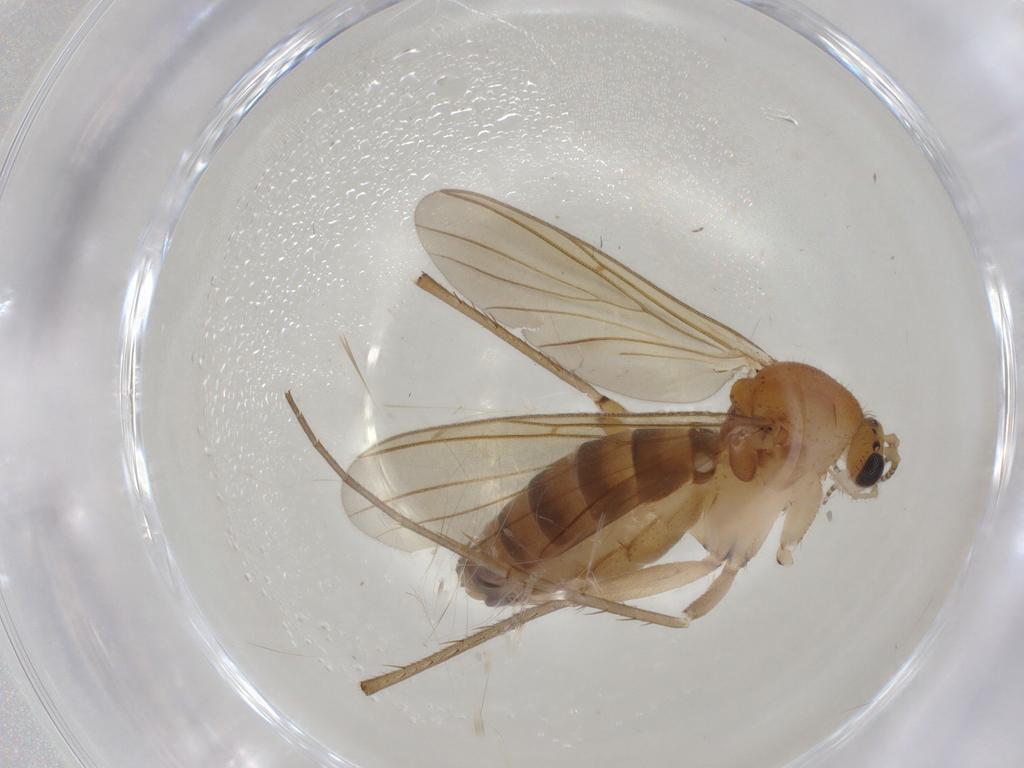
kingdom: Animalia
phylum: Arthropoda
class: Insecta
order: Diptera
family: Mycetophilidae
